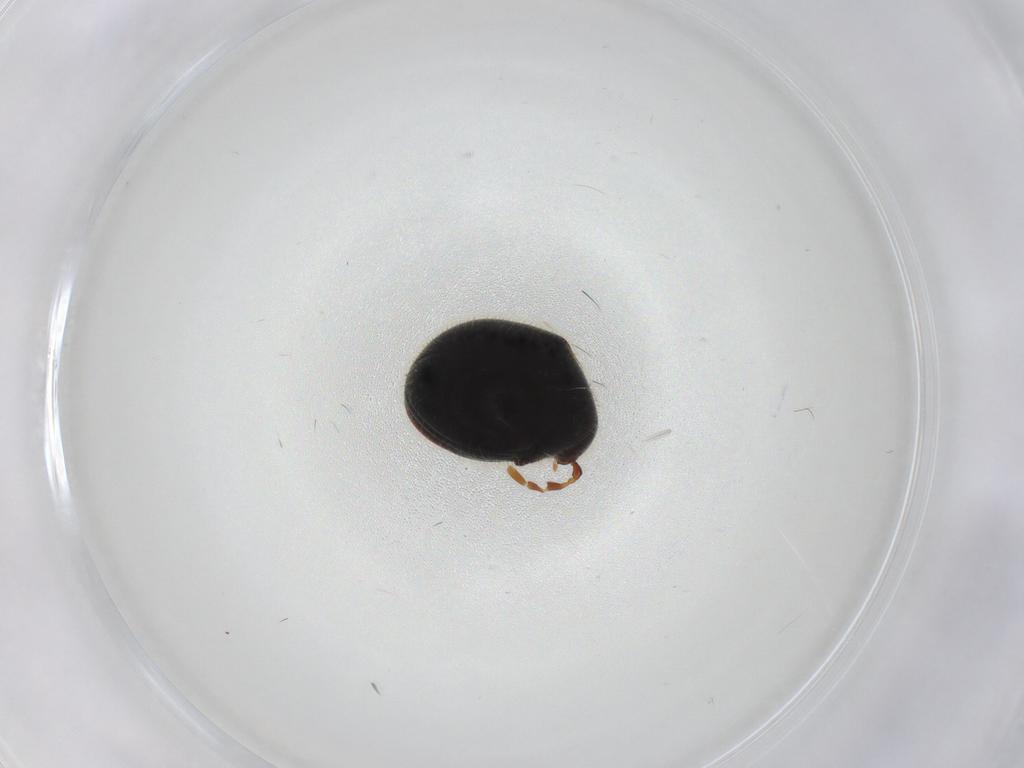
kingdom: Animalia
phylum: Arthropoda
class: Insecta
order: Coleoptera
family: Ptinidae
